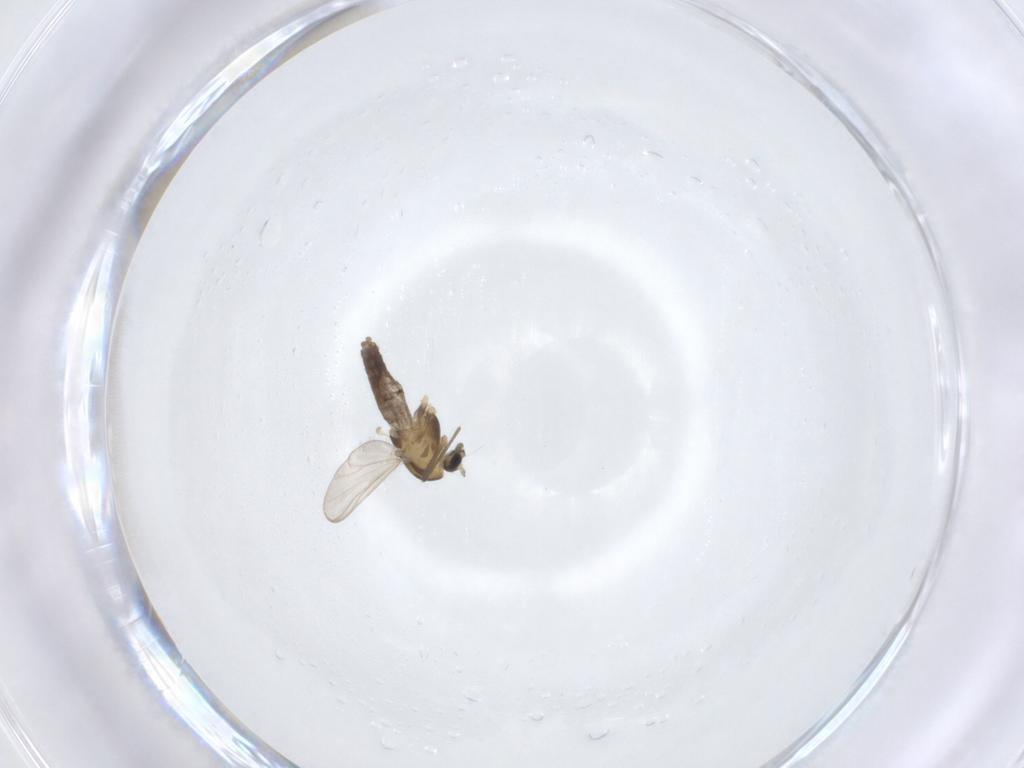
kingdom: Animalia
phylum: Arthropoda
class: Insecta
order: Diptera
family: Chironomidae
